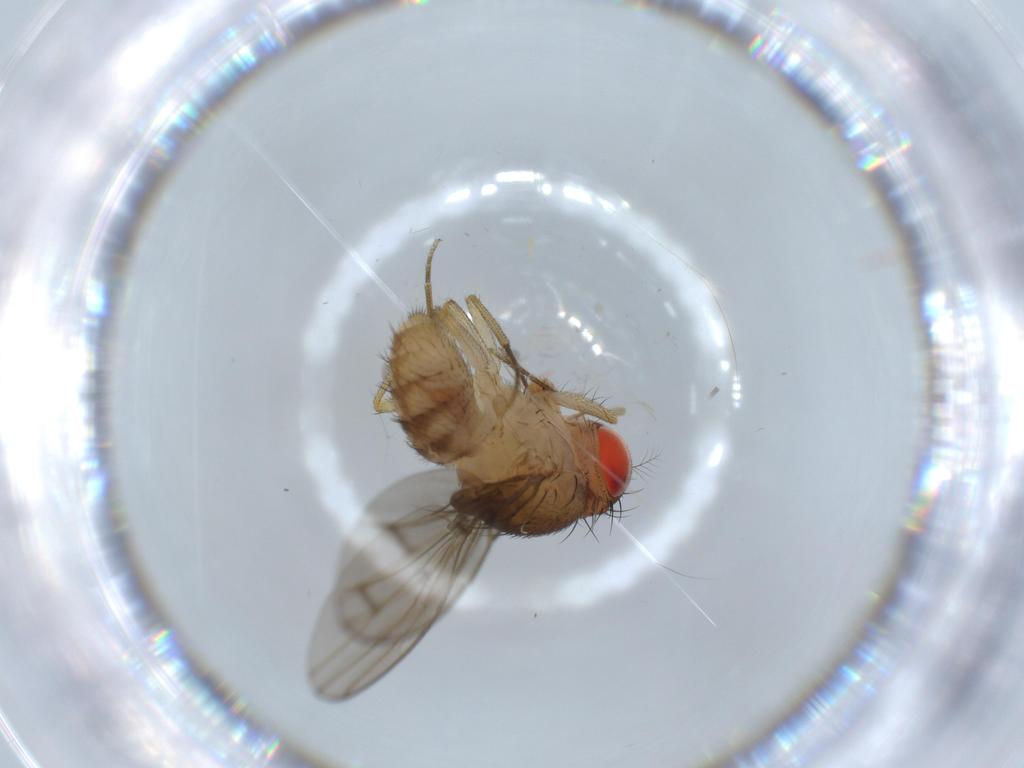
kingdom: Animalia
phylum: Arthropoda
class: Insecta
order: Diptera
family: Drosophilidae
